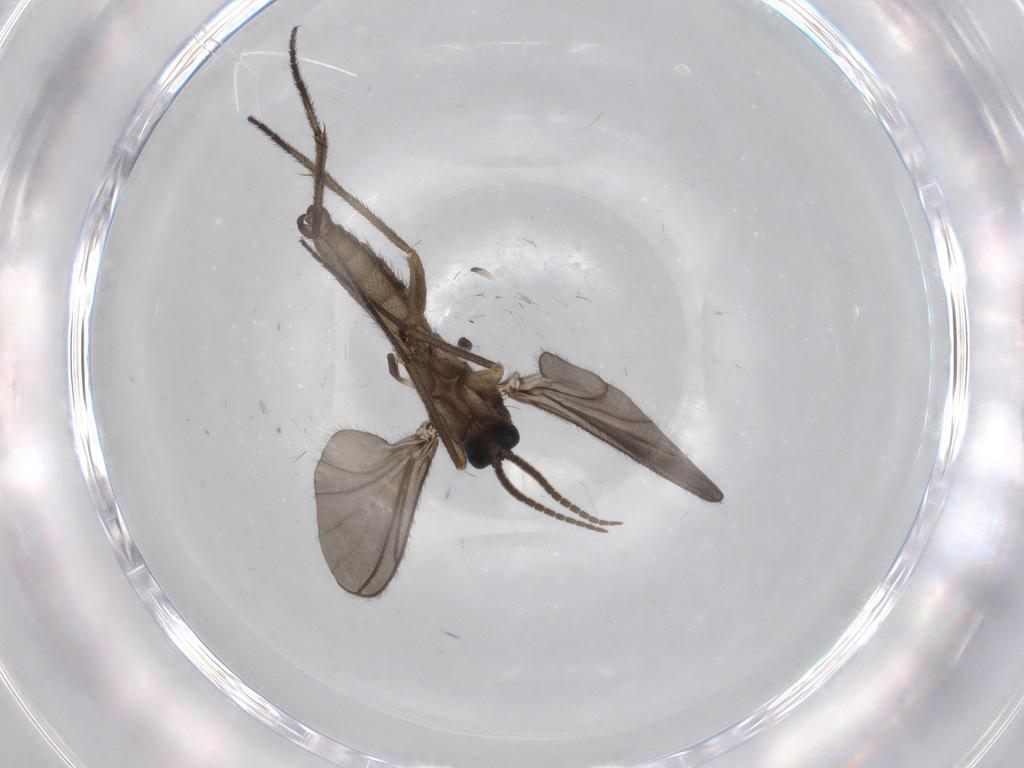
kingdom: Animalia
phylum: Arthropoda
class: Insecta
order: Diptera
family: Sciaridae
